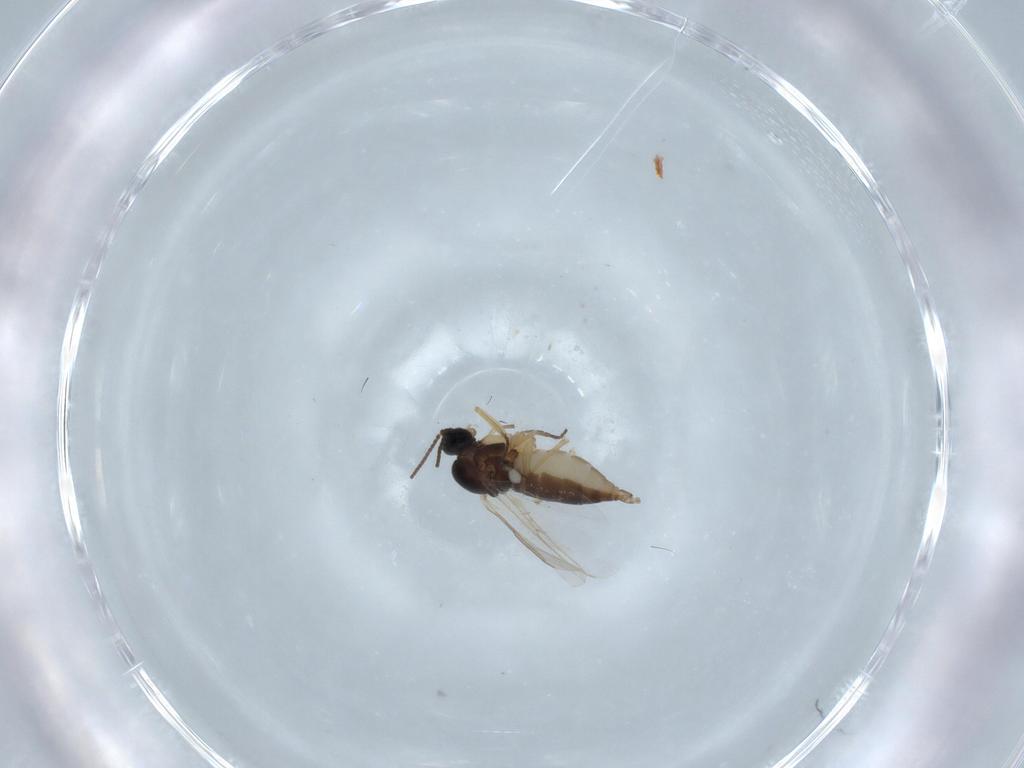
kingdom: Animalia
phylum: Arthropoda
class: Insecta
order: Diptera
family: Sciaridae
